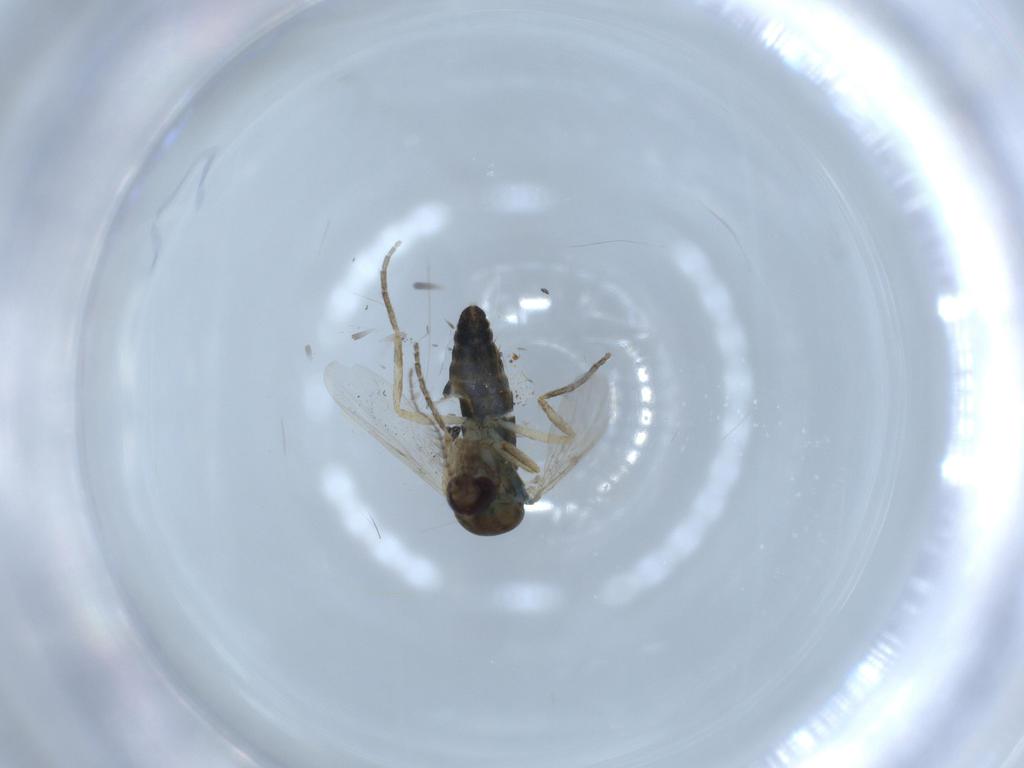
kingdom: Animalia
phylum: Arthropoda
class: Insecta
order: Diptera
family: Ceratopogonidae
